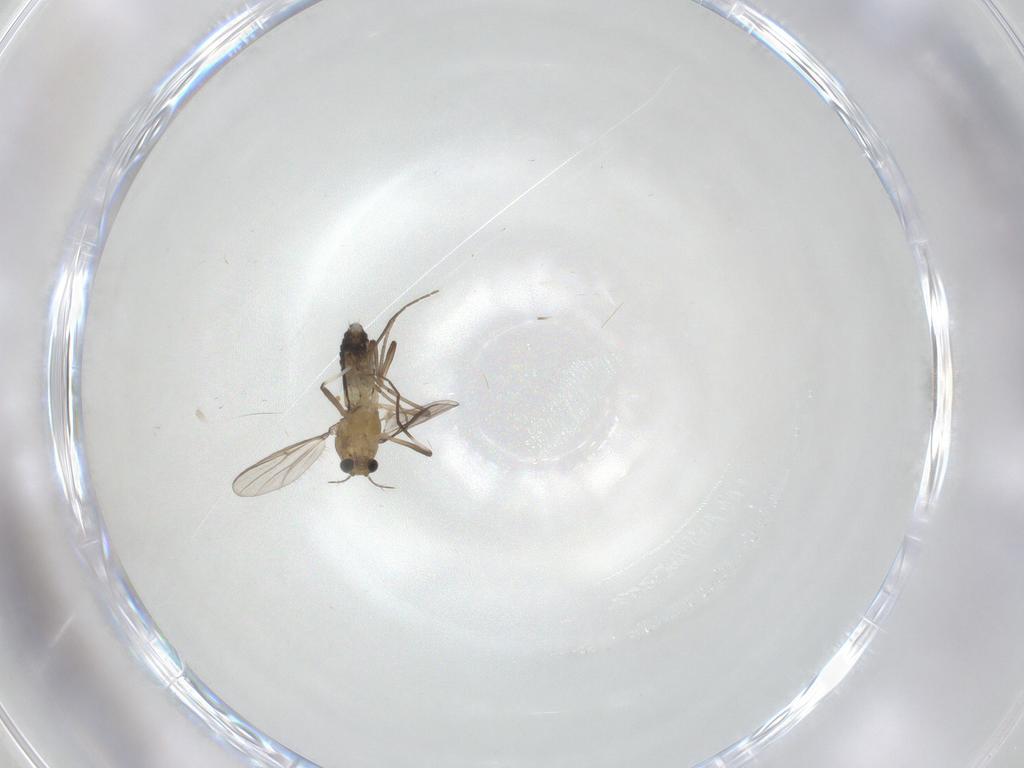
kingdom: Animalia
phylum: Arthropoda
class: Insecta
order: Diptera
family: Chironomidae
